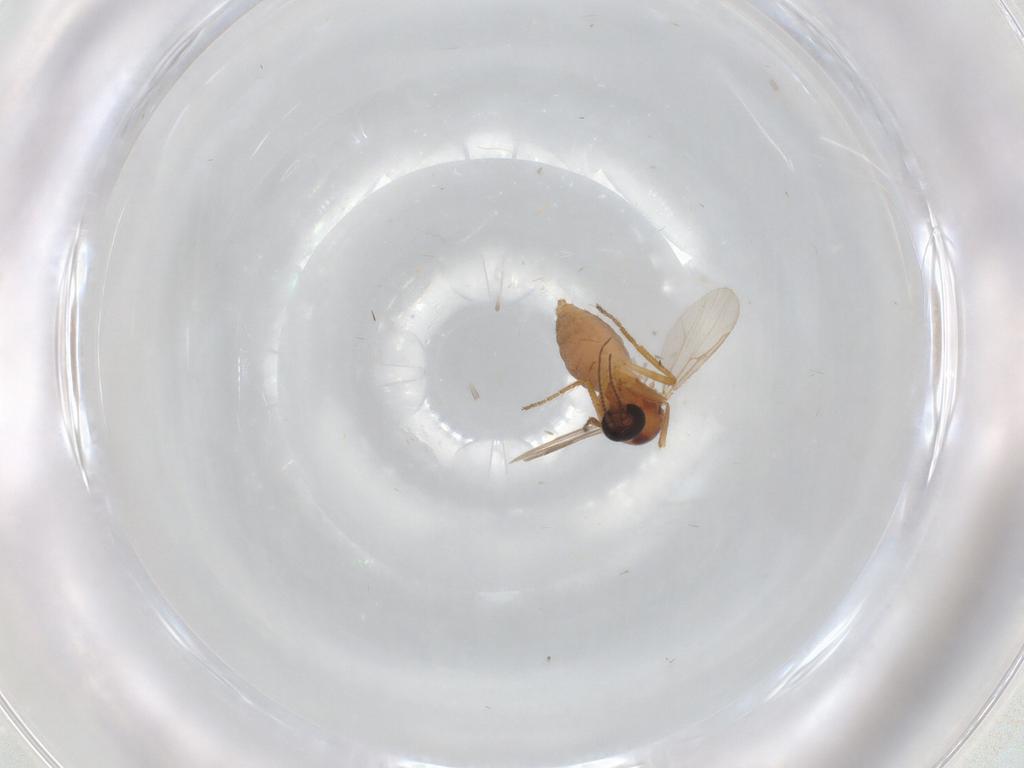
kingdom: Animalia
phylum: Arthropoda
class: Insecta
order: Diptera
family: Ceratopogonidae
